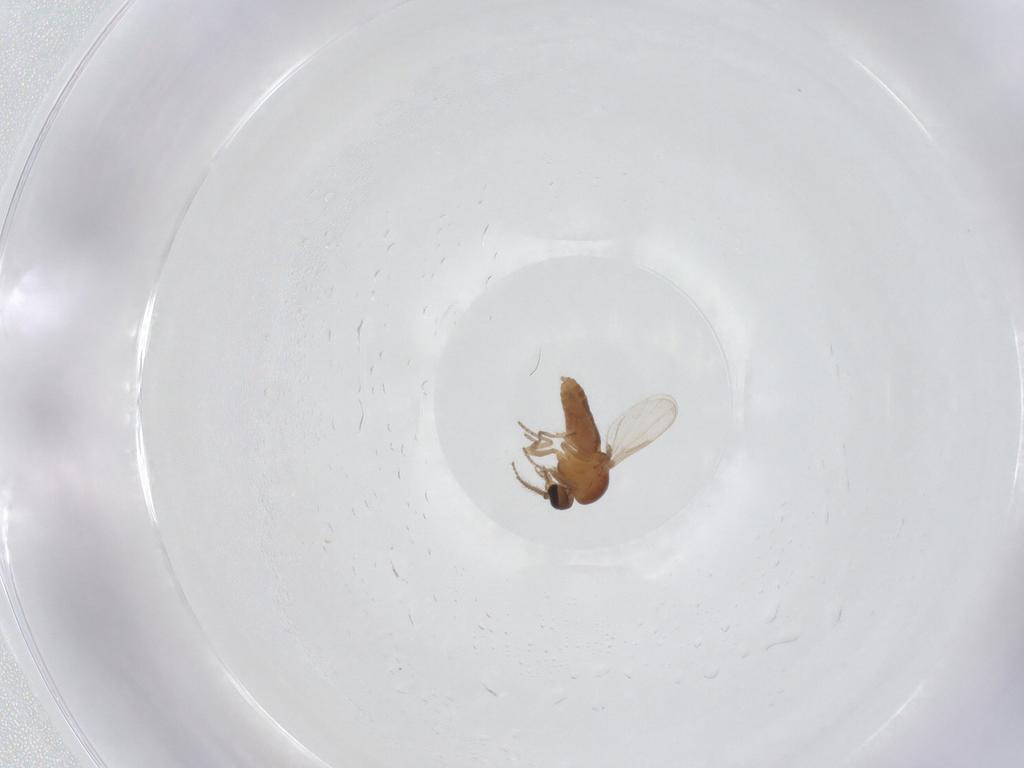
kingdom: Animalia
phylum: Arthropoda
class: Insecta
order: Diptera
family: Ceratopogonidae
